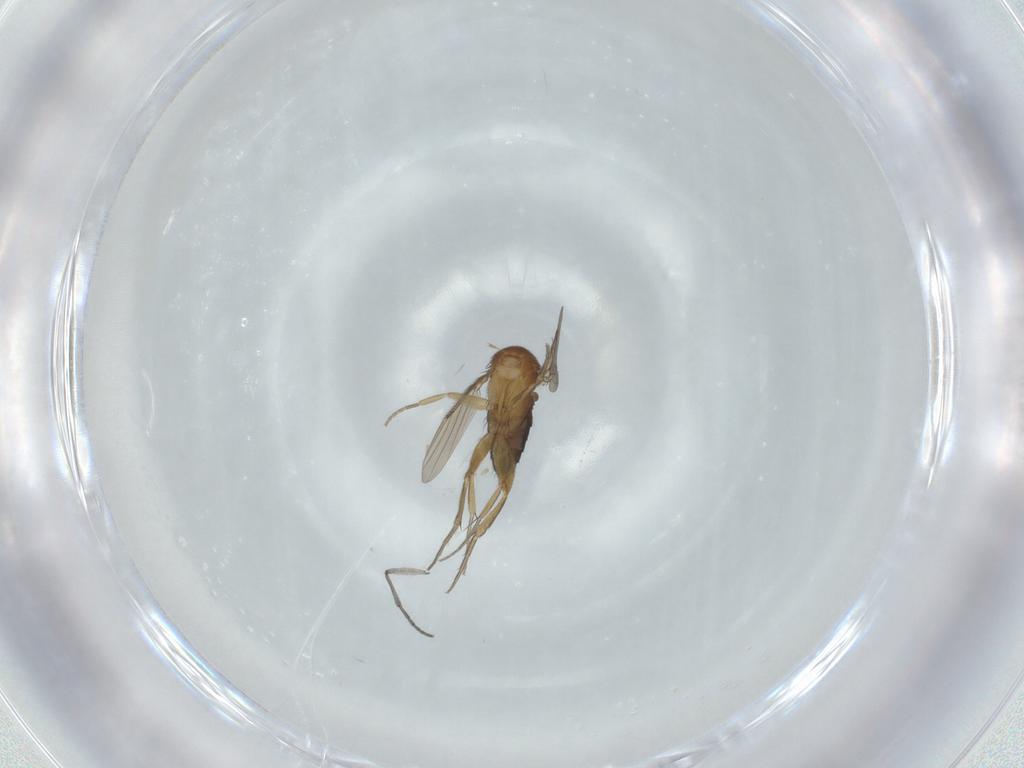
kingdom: Animalia
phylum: Arthropoda
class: Insecta
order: Diptera
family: Sciaridae
